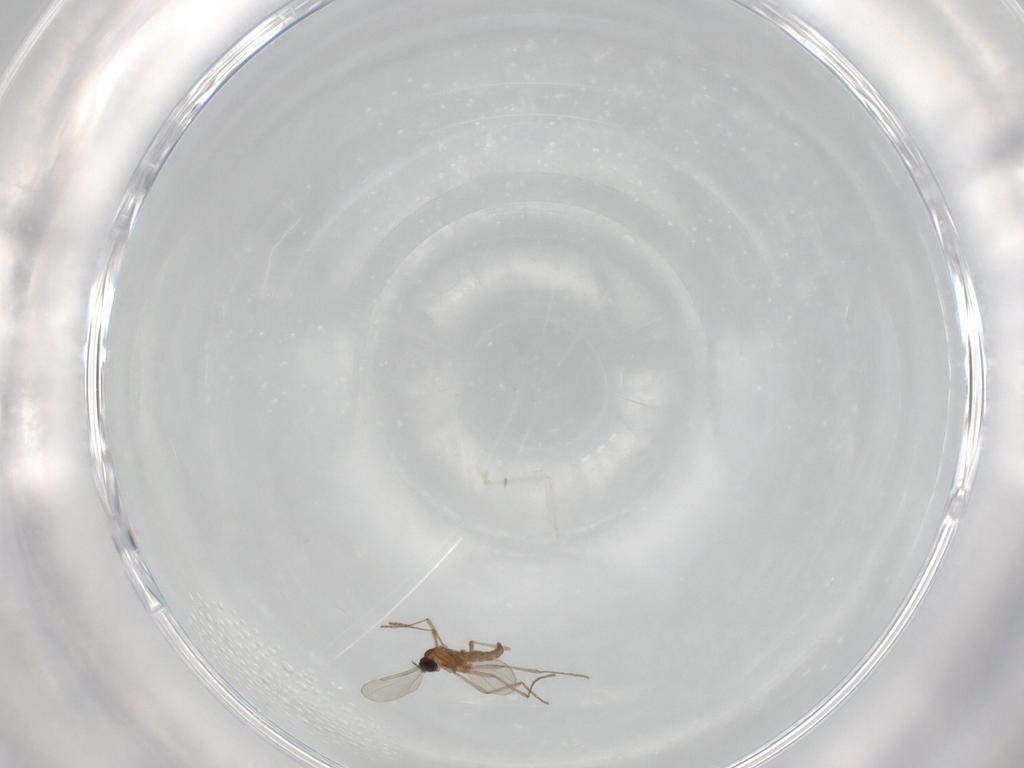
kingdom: Animalia
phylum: Arthropoda
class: Insecta
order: Diptera
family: Cecidomyiidae
